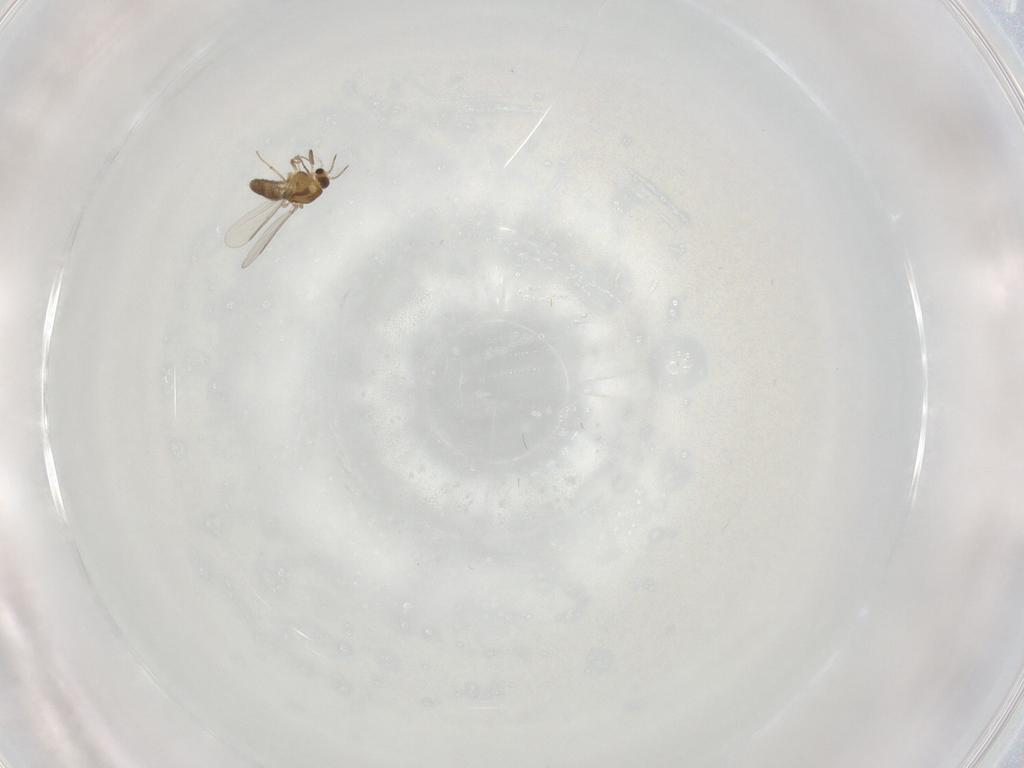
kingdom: Animalia
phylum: Arthropoda
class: Insecta
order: Diptera
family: Chironomidae
